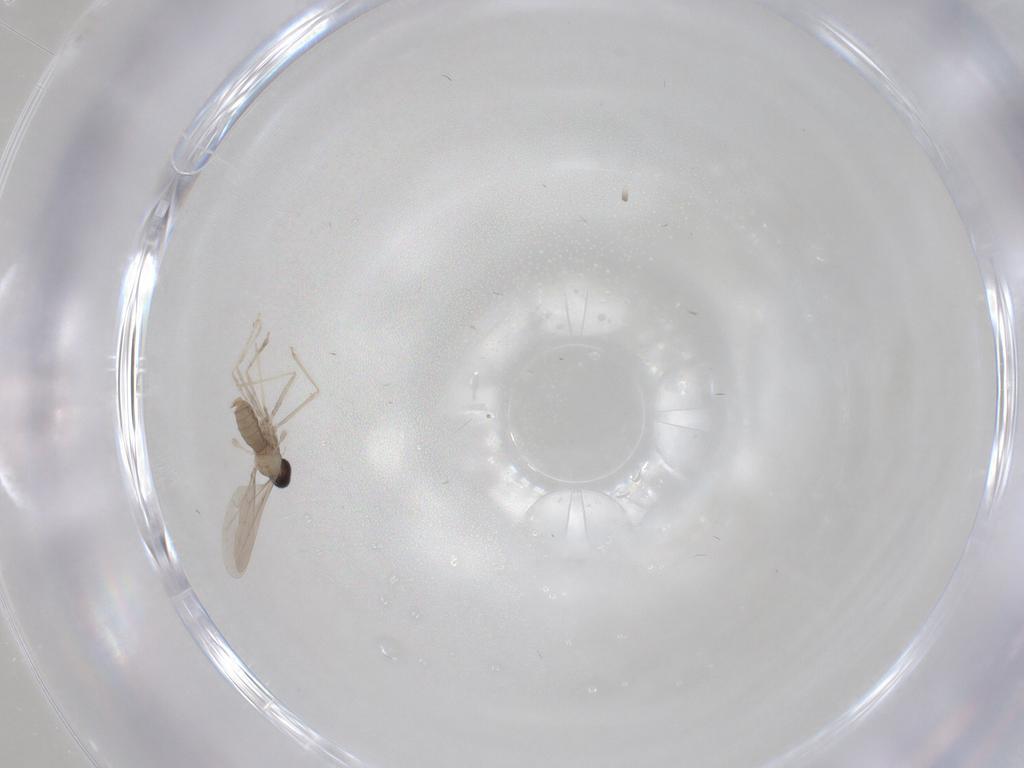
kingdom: Animalia
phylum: Arthropoda
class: Insecta
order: Diptera
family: Cecidomyiidae
